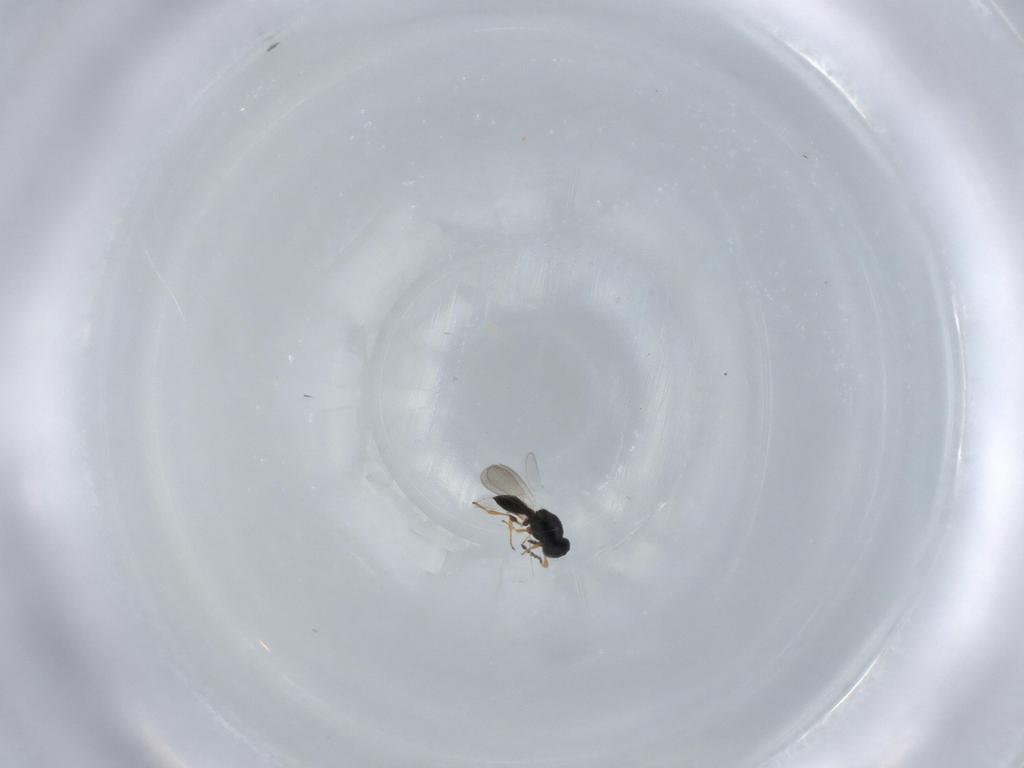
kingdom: Animalia
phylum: Arthropoda
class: Insecta
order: Hymenoptera
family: Platygastridae
